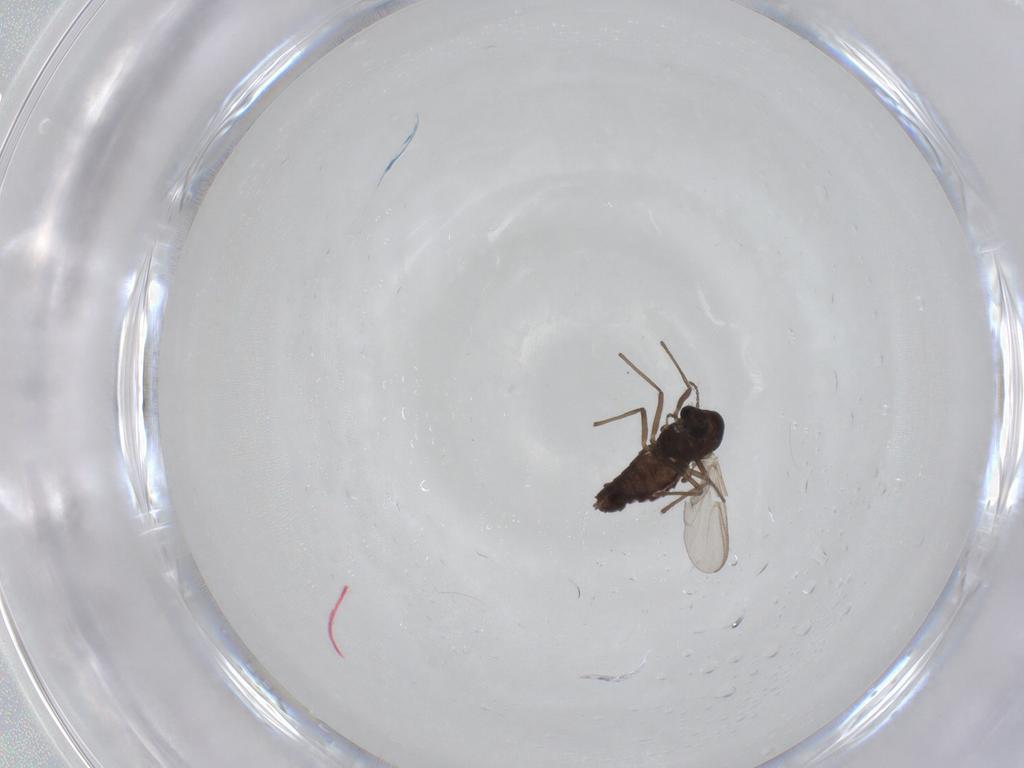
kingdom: Animalia
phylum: Arthropoda
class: Insecta
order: Diptera
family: Chironomidae
